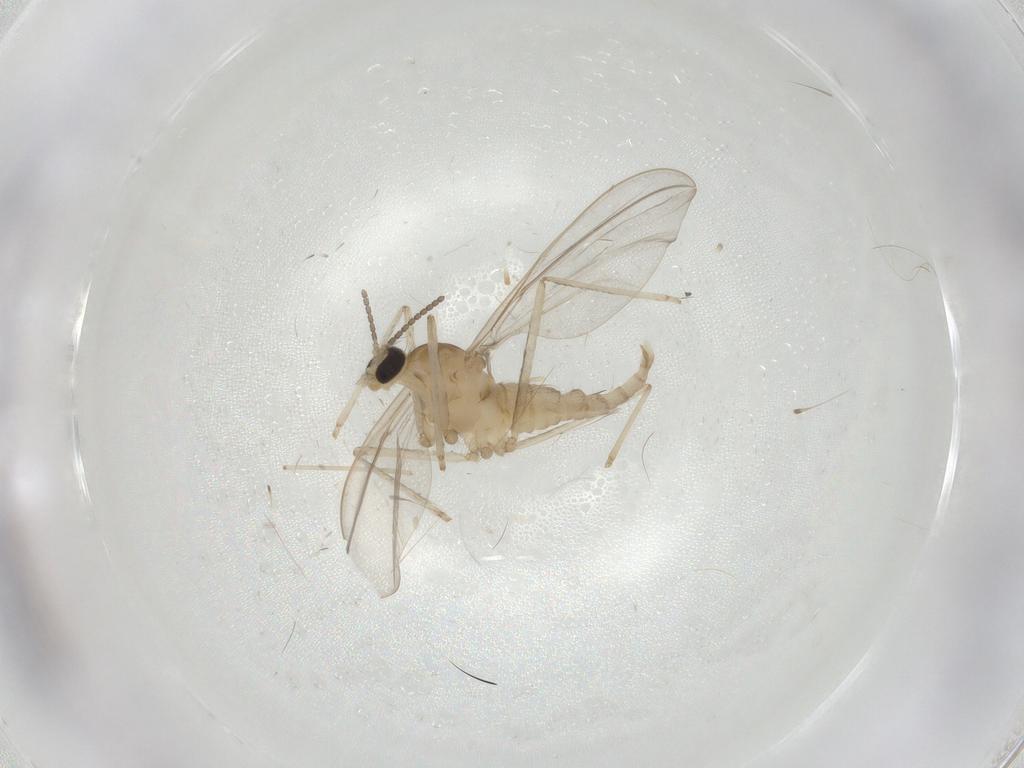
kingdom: Animalia
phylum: Arthropoda
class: Insecta
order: Diptera
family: Cecidomyiidae
